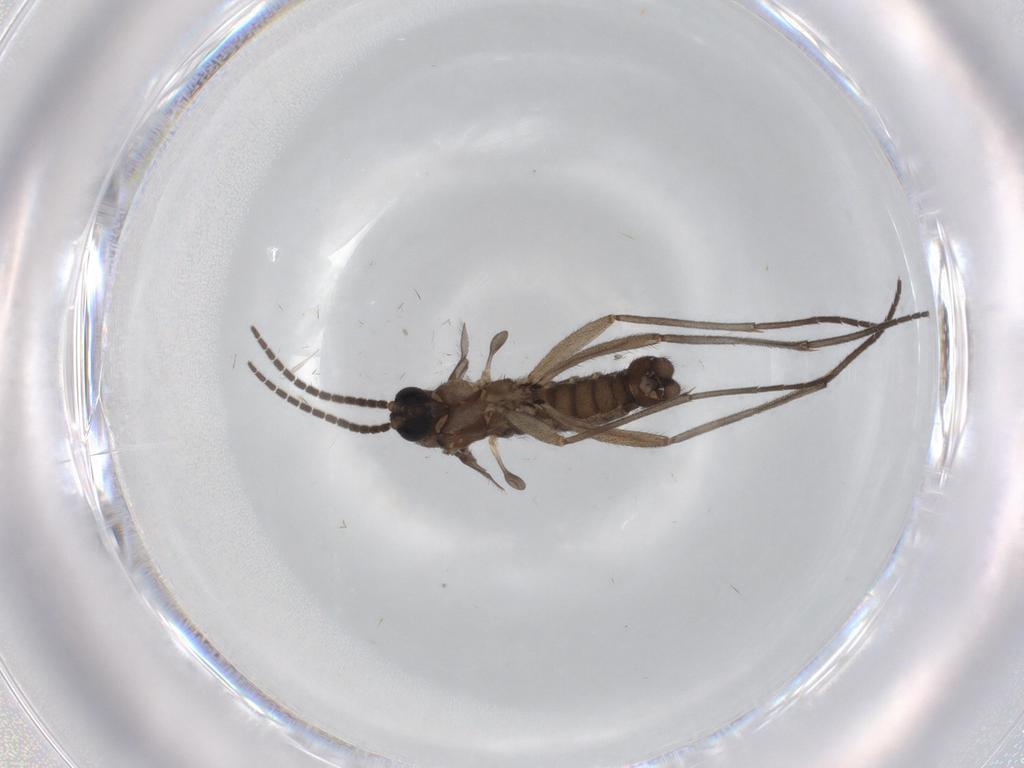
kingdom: Animalia
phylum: Arthropoda
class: Insecta
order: Diptera
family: Sciaridae
